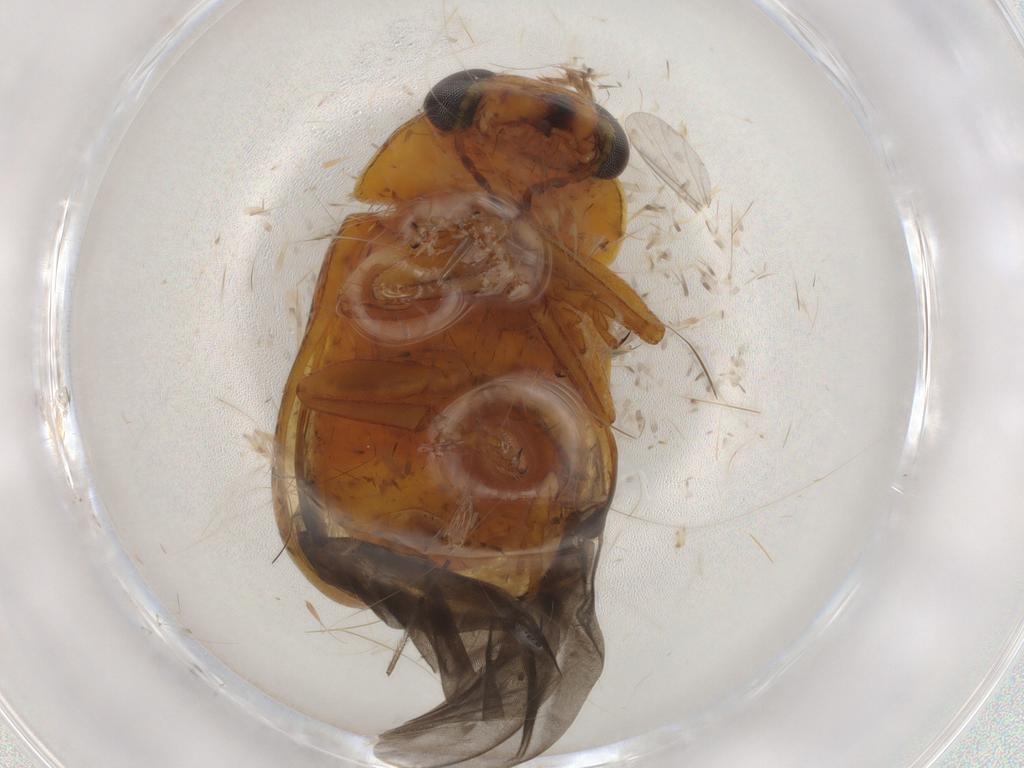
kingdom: Animalia
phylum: Arthropoda
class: Insecta
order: Coleoptera
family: Chrysomelidae
